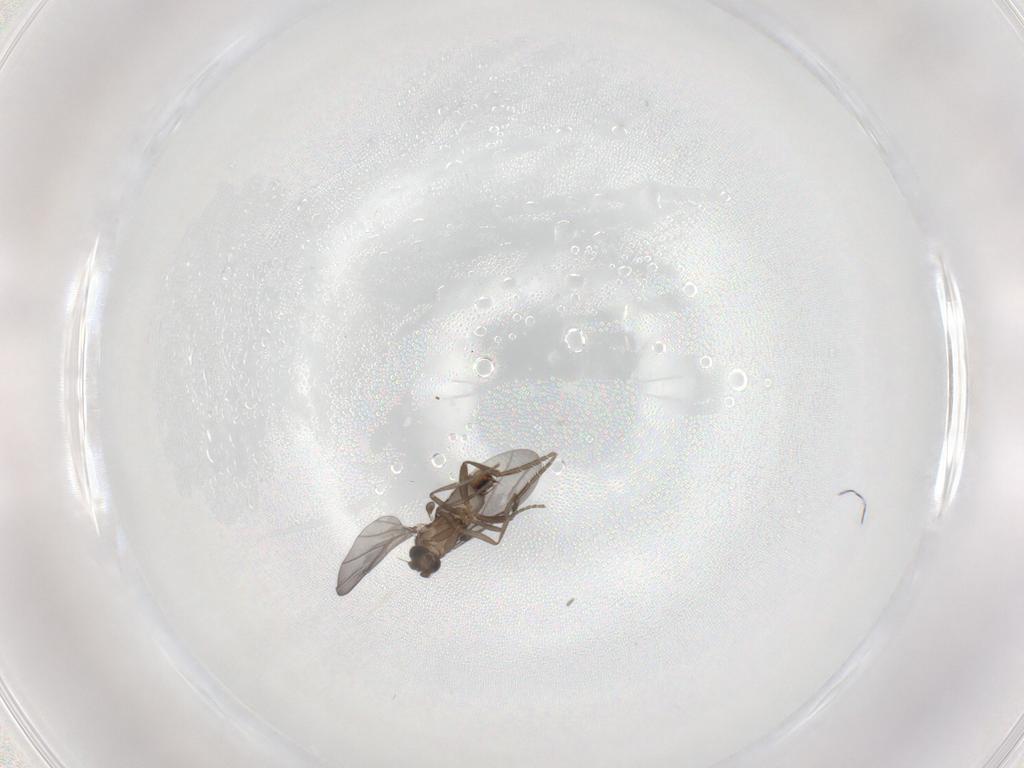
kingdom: Animalia
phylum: Arthropoda
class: Insecta
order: Diptera
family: Phoridae
